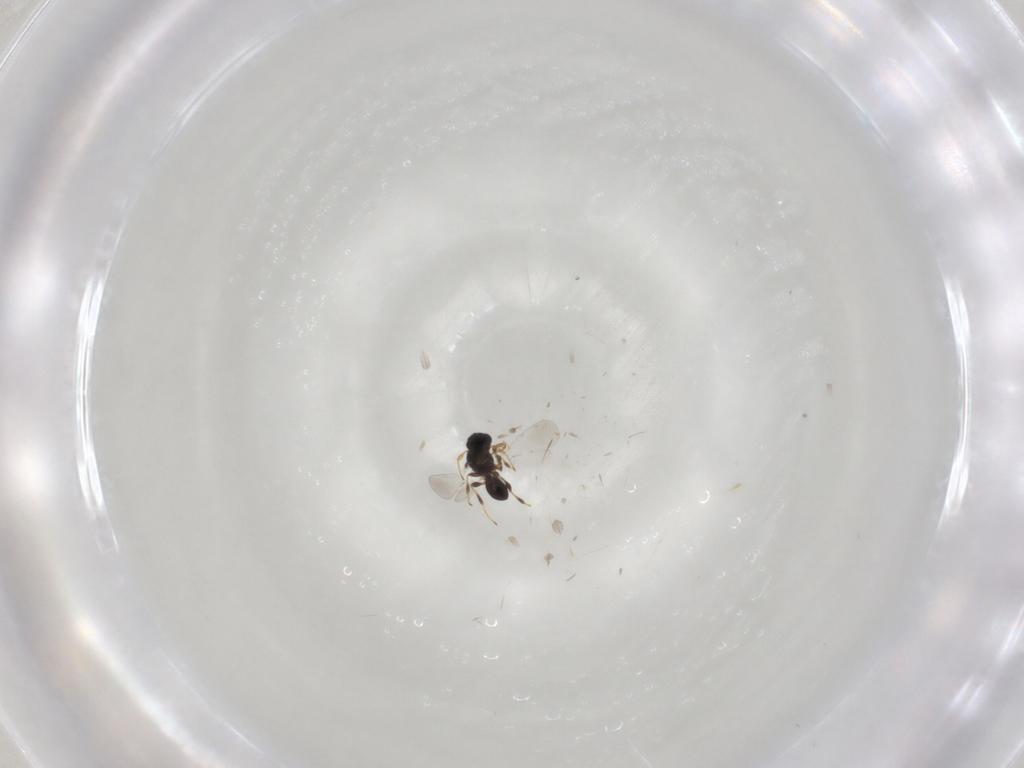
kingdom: Animalia
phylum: Arthropoda
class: Insecta
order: Hymenoptera
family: Platygastridae
